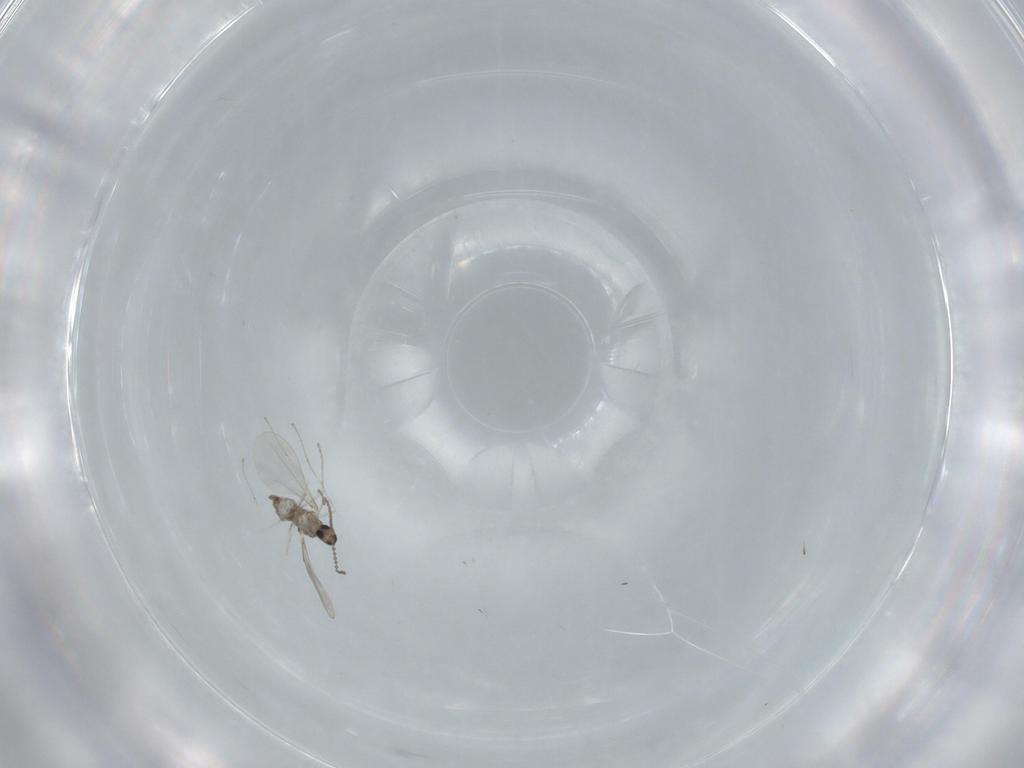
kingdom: Animalia
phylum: Arthropoda
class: Insecta
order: Diptera
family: Cecidomyiidae
